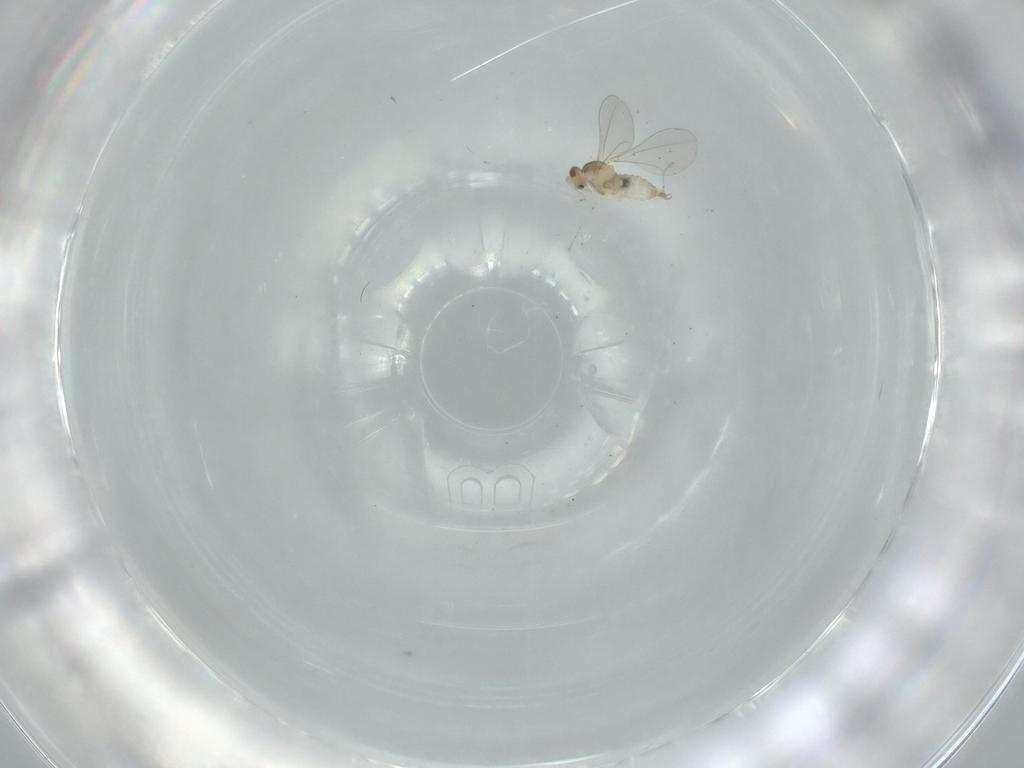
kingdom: Animalia
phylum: Arthropoda
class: Insecta
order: Diptera
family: Cecidomyiidae
